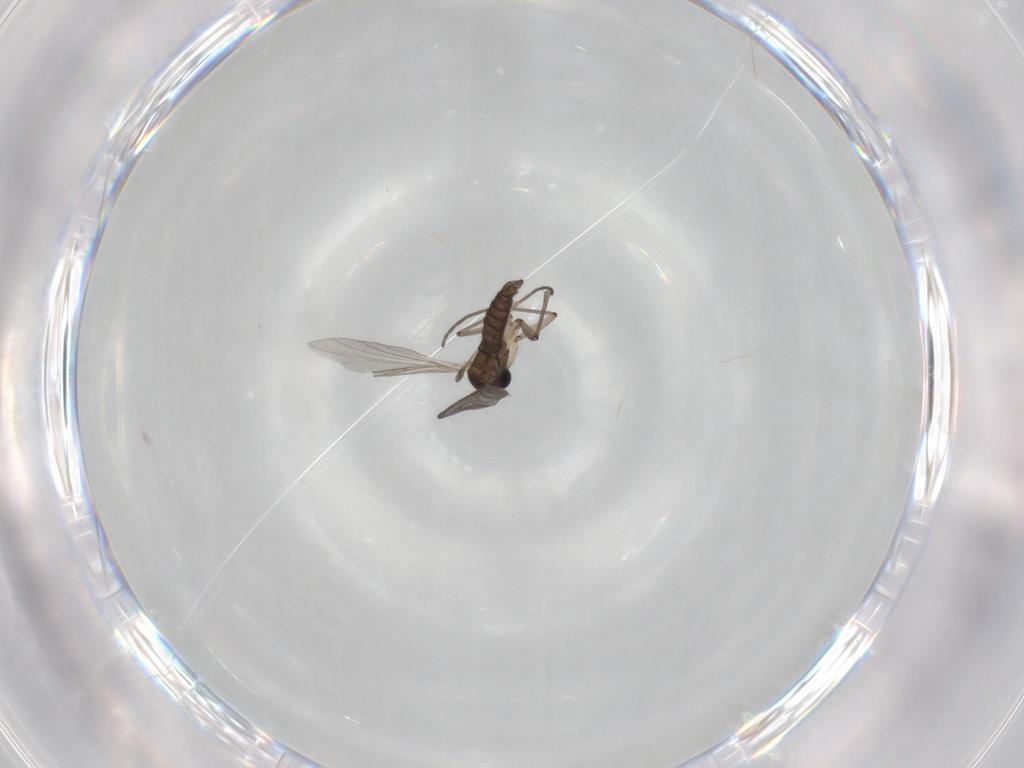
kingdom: Animalia
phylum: Arthropoda
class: Insecta
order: Diptera
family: Sciaridae
